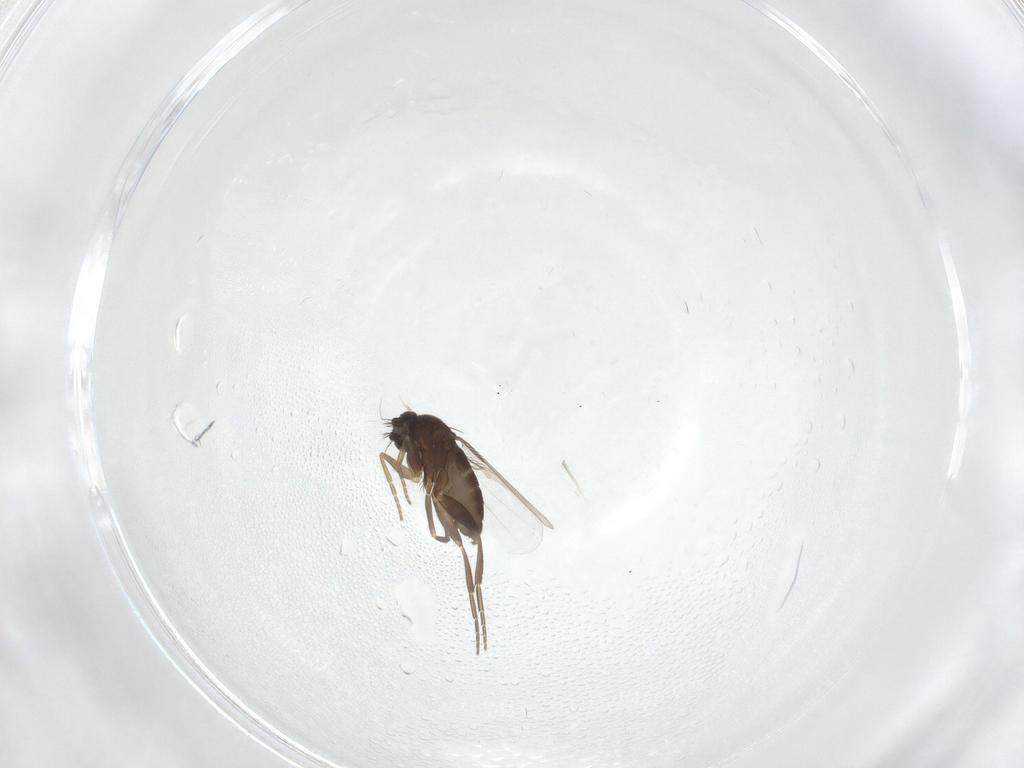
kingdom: Animalia
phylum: Arthropoda
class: Insecta
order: Diptera
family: Phoridae
